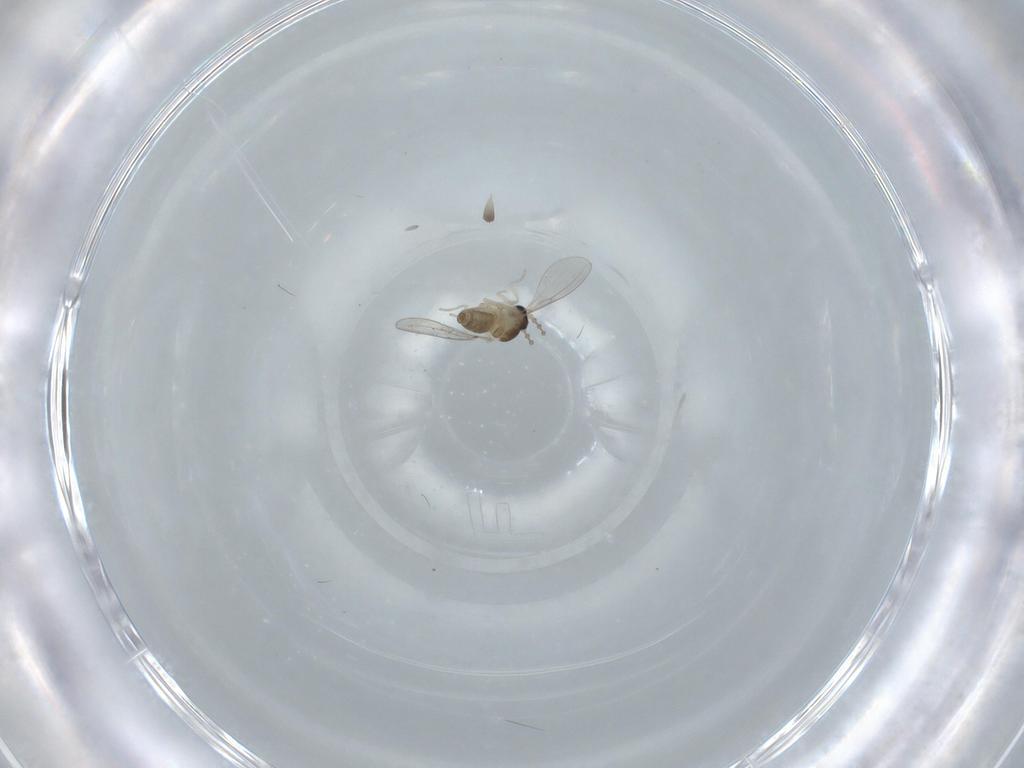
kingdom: Animalia
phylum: Arthropoda
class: Insecta
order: Diptera
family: Cecidomyiidae
